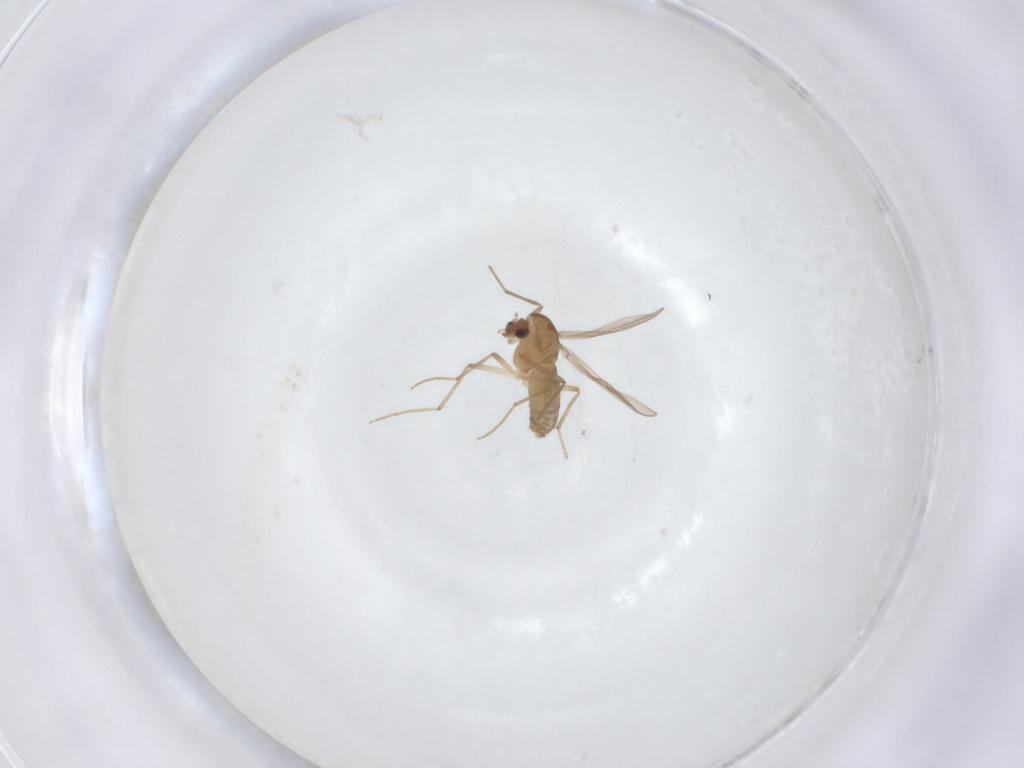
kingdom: Animalia
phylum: Arthropoda
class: Insecta
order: Diptera
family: Chironomidae
